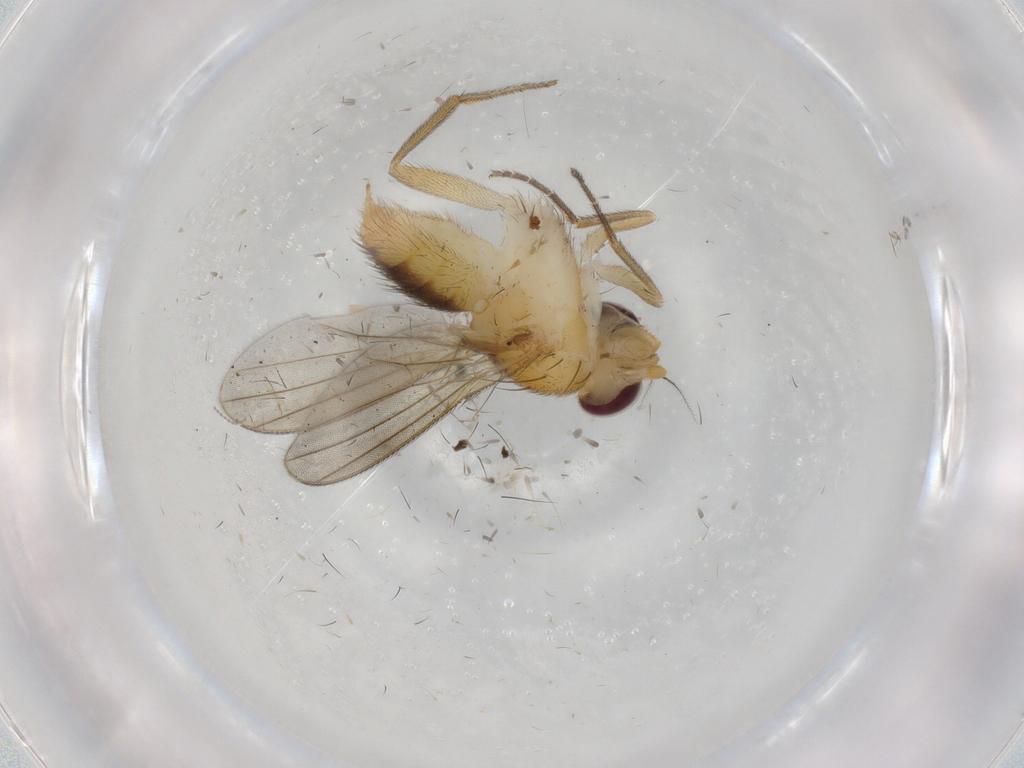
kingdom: Animalia
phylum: Arthropoda
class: Insecta
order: Diptera
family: Clusiidae
